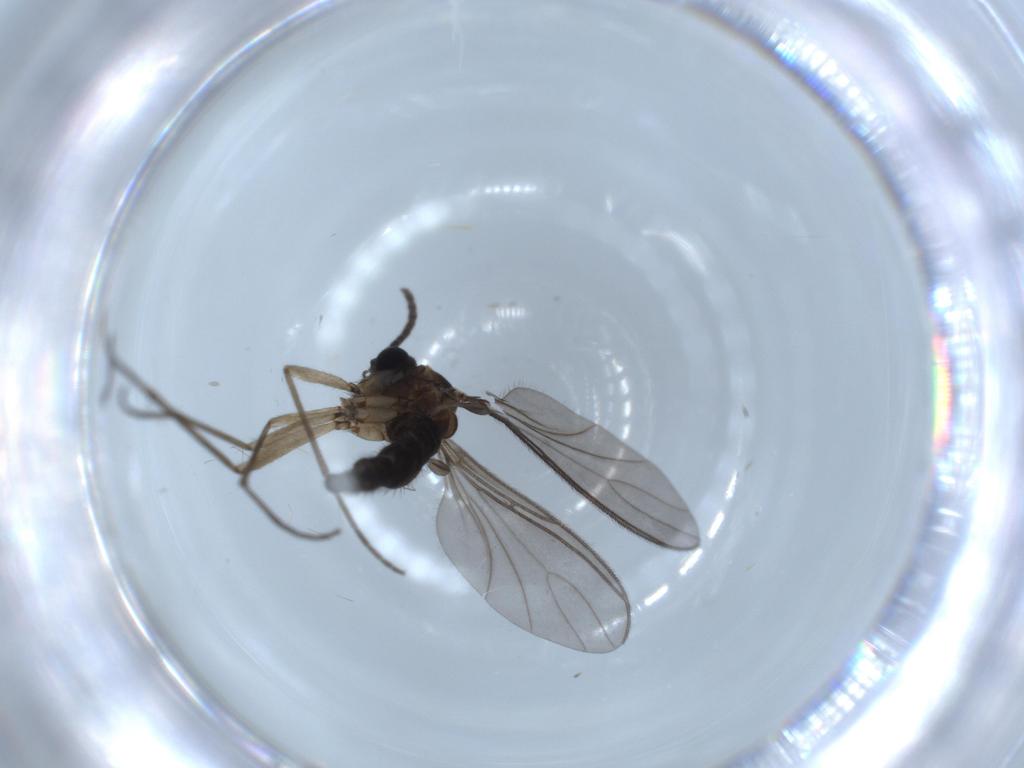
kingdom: Animalia
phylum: Arthropoda
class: Insecta
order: Diptera
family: Sciaridae
